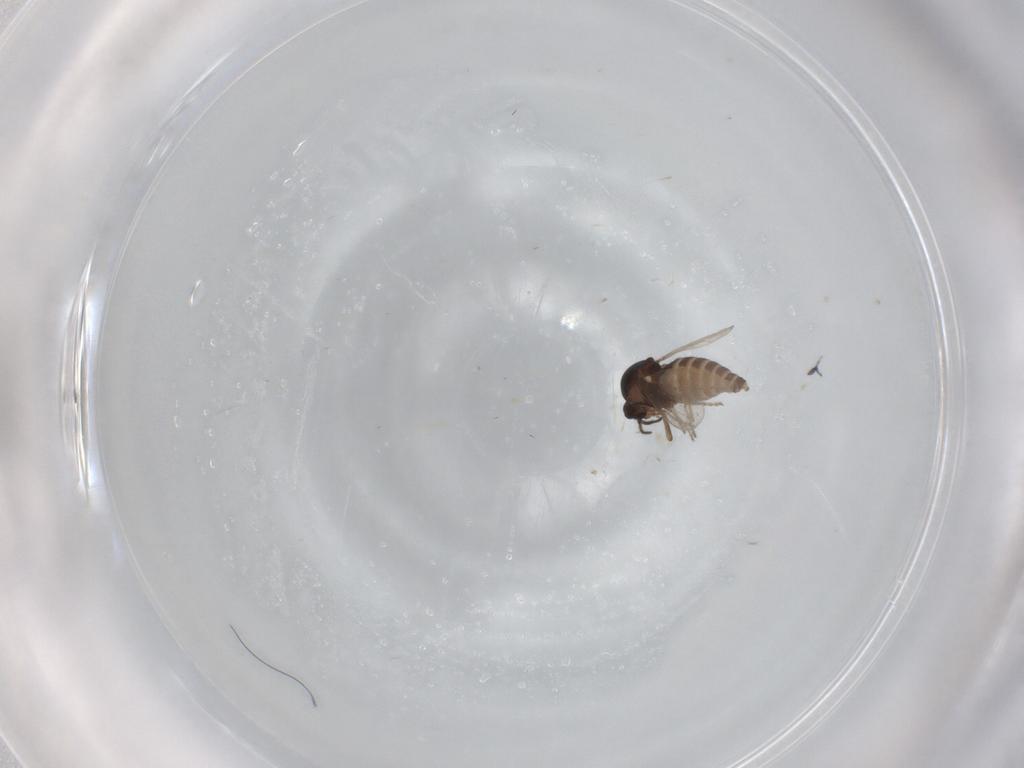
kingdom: Animalia
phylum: Arthropoda
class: Insecta
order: Diptera
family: Ceratopogonidae
